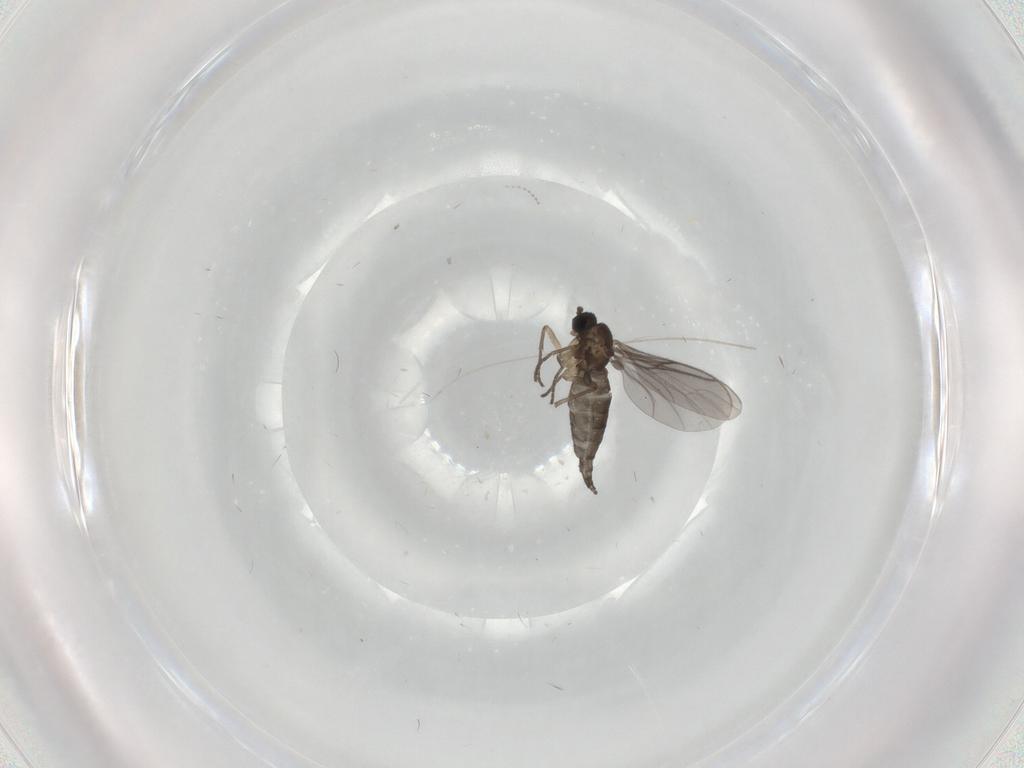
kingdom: Animalia
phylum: Arthropoda
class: Insecta
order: Diptera
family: Sciaridae
